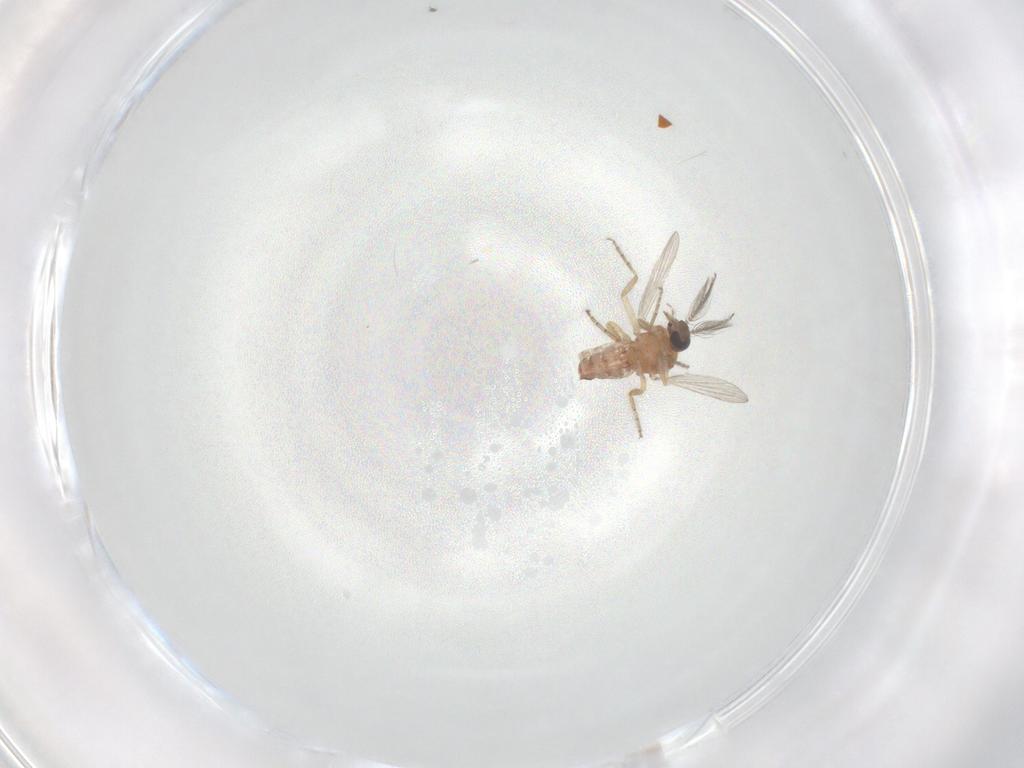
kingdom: Animalia
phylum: Arthropoda
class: Insecta
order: Diptera
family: Ceratopogonidae
